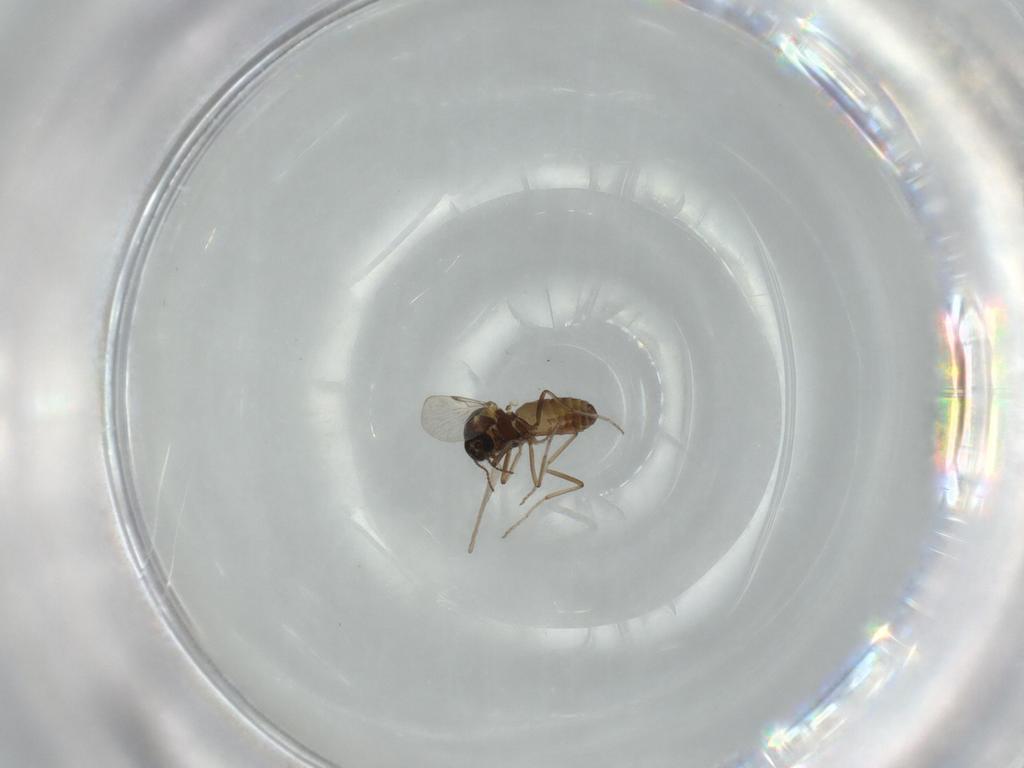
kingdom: Animalia
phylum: Arthropoda
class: Insecta
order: Diptera
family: Ceratopogonidae
